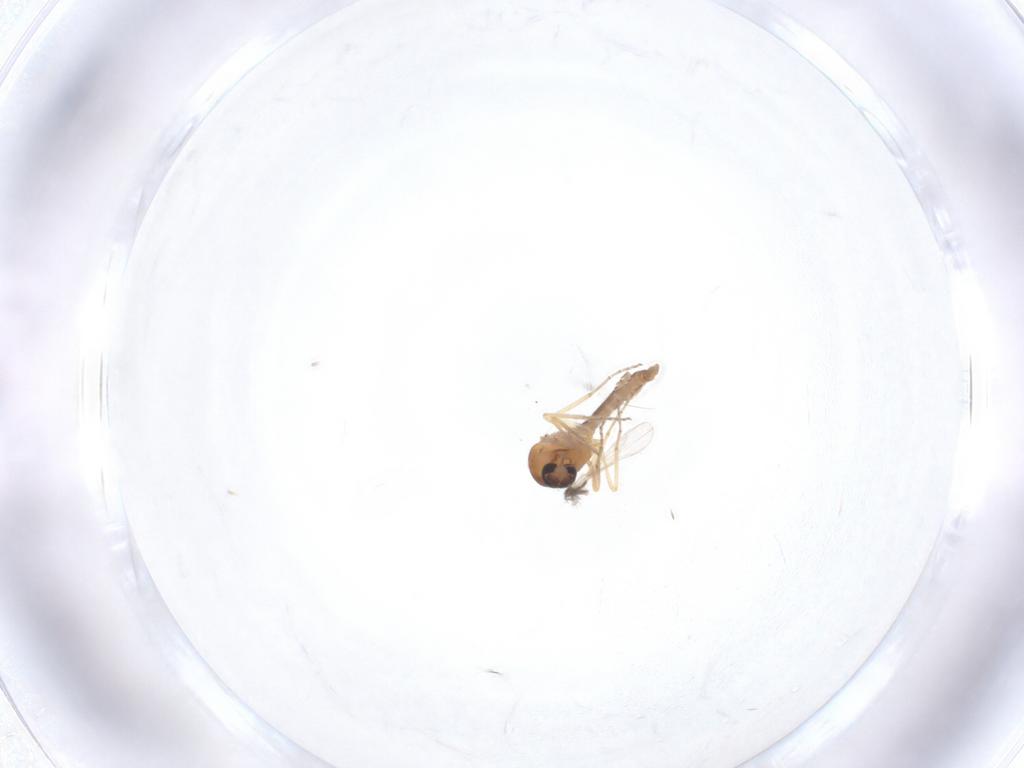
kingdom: Animalia
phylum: Arthropoda
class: Insecta
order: Diptera
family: Ceratopogonidae
